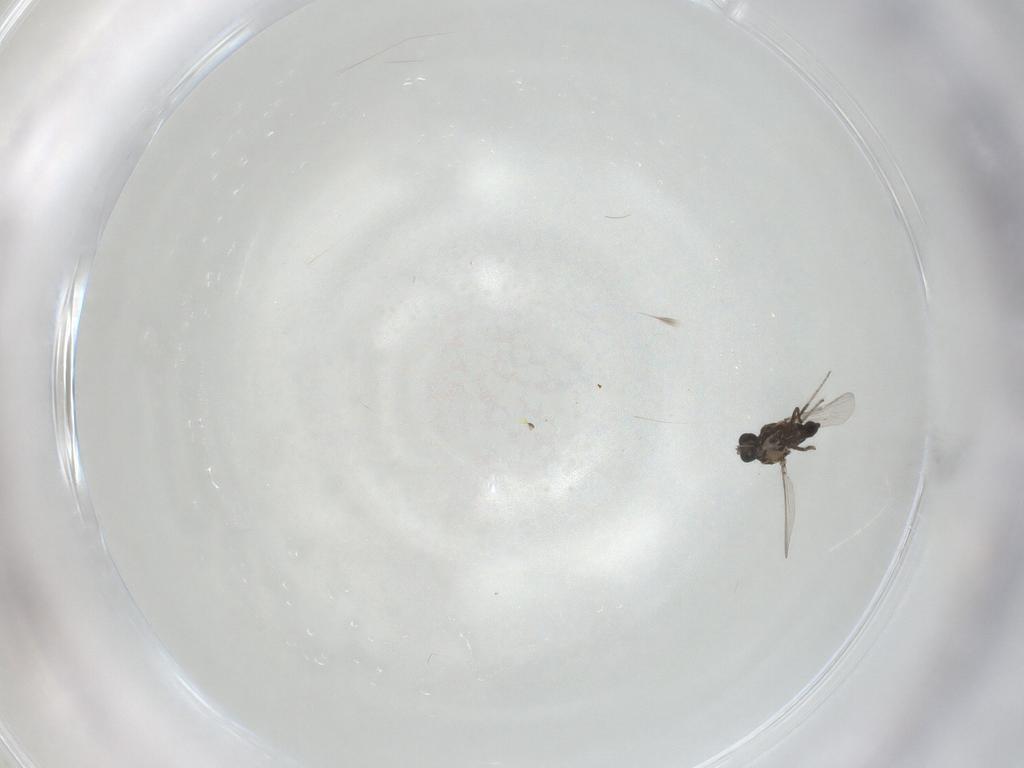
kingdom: Animalia
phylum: Arthropoda
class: Insecta
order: Diptera
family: Ceratopogonidae
